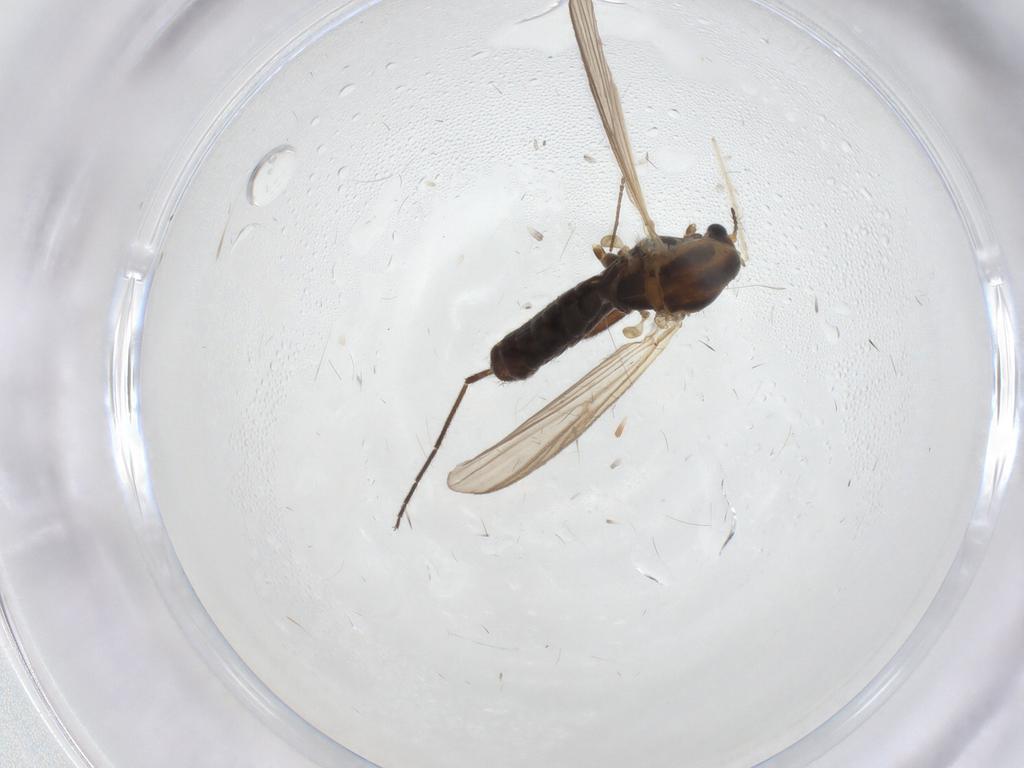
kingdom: Animalia
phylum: Arthropoda
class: Insecta
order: Diptera
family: Chironomidae
